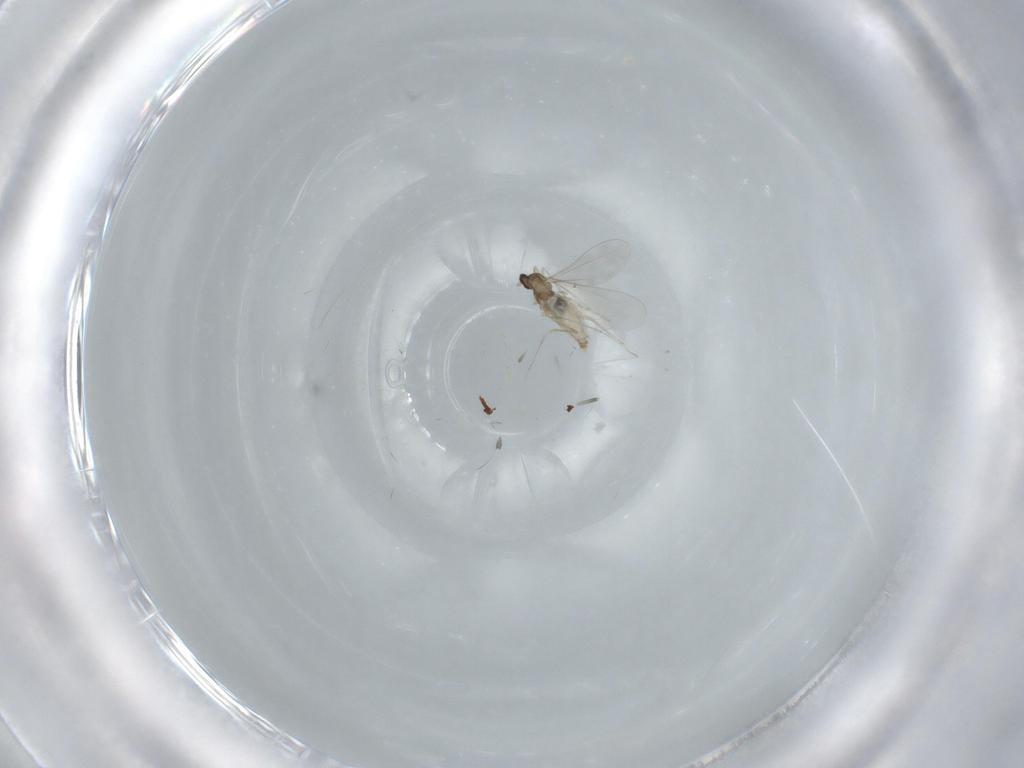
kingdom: Animalia
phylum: Arthropoda
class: Insecta
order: Diptera
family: Cecidomyiidae
